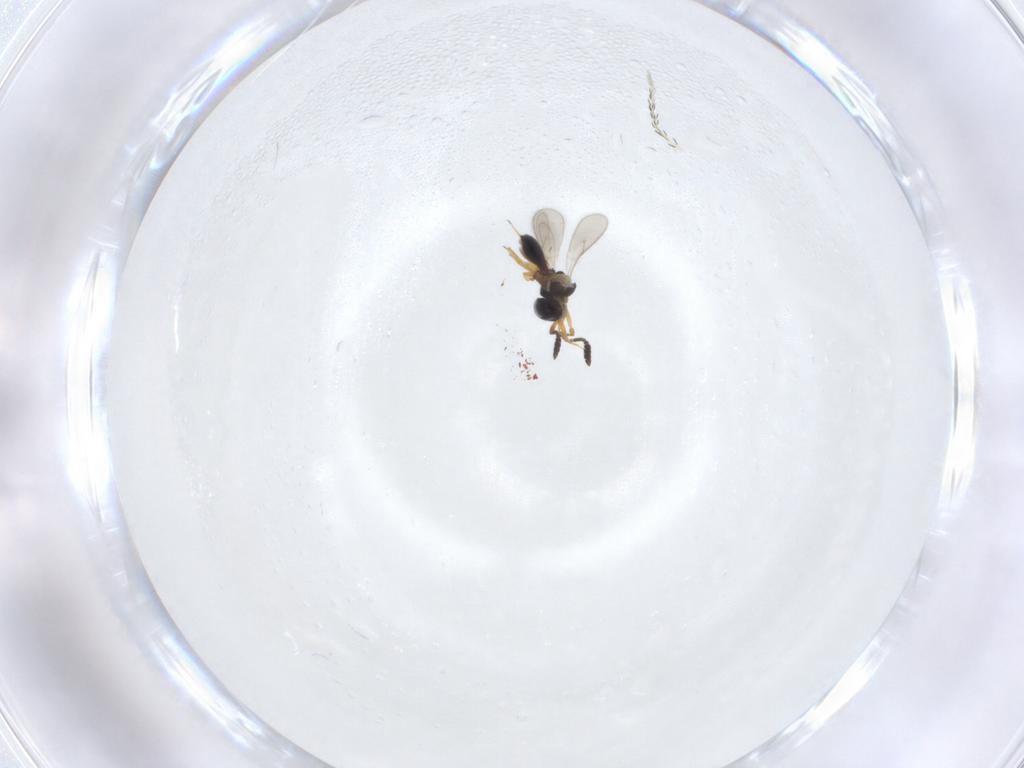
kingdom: Animalia
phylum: Arthropoda
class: Insecta
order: Hymenoptera
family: Scelionidae
